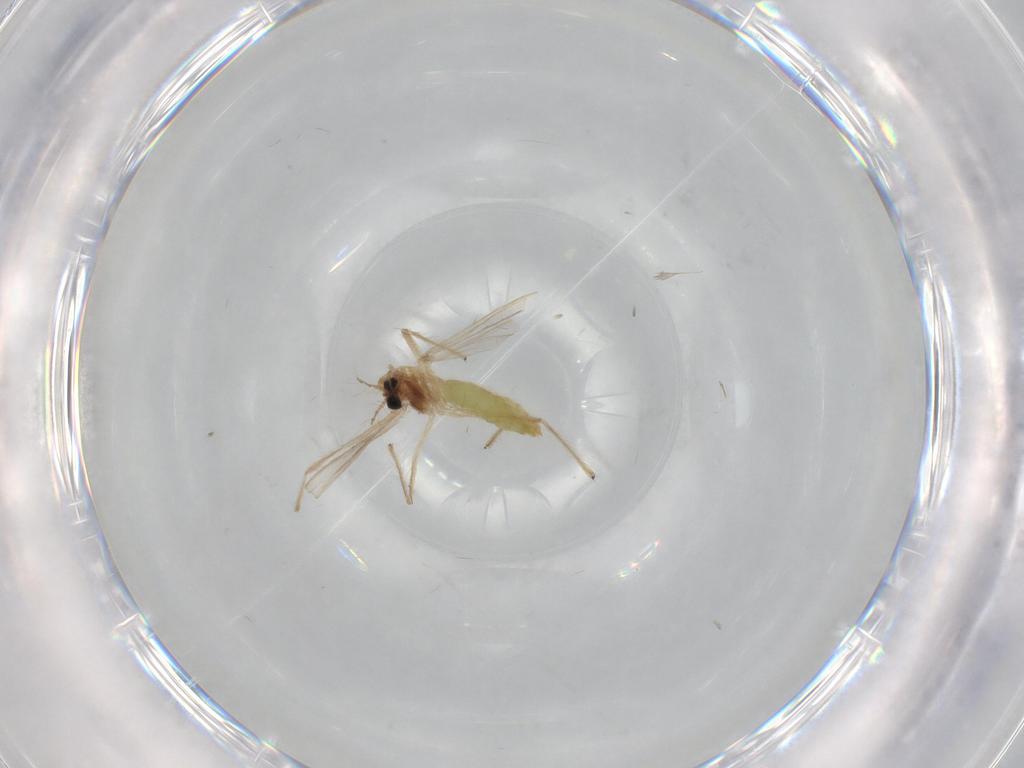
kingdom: Animalia
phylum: Arthropoda
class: Insecta
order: Diptera
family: Chironomidae
